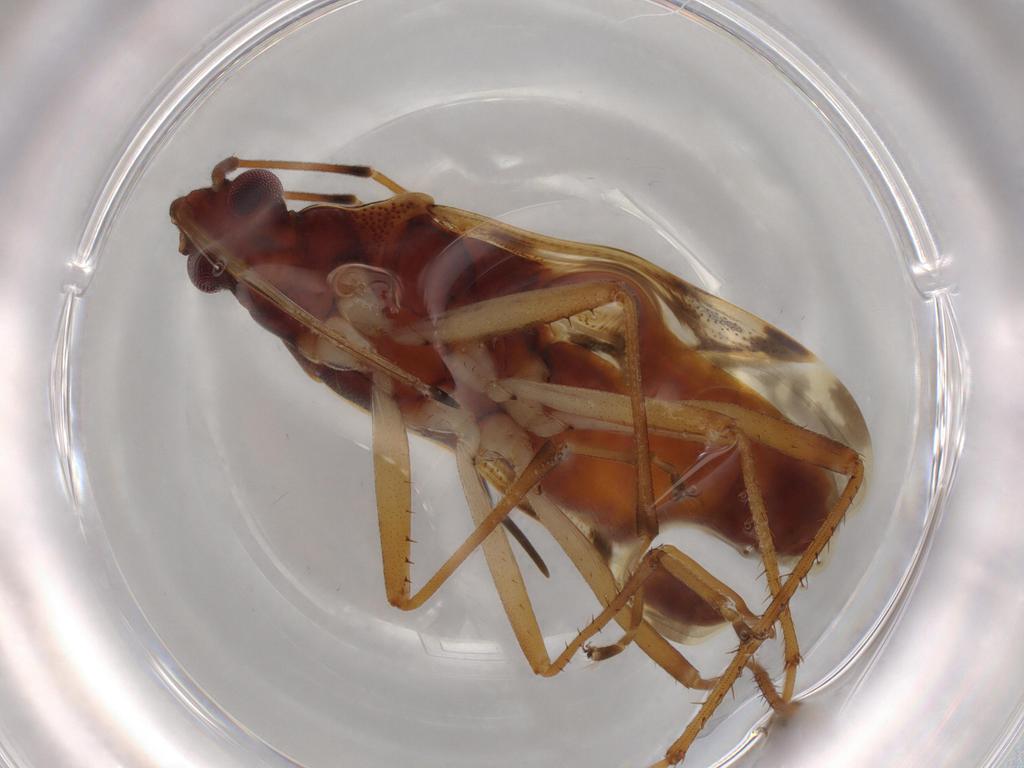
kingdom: Animalia
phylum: Arthropoda
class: Insecta
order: Hemiptera
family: Rhyparochromidae
